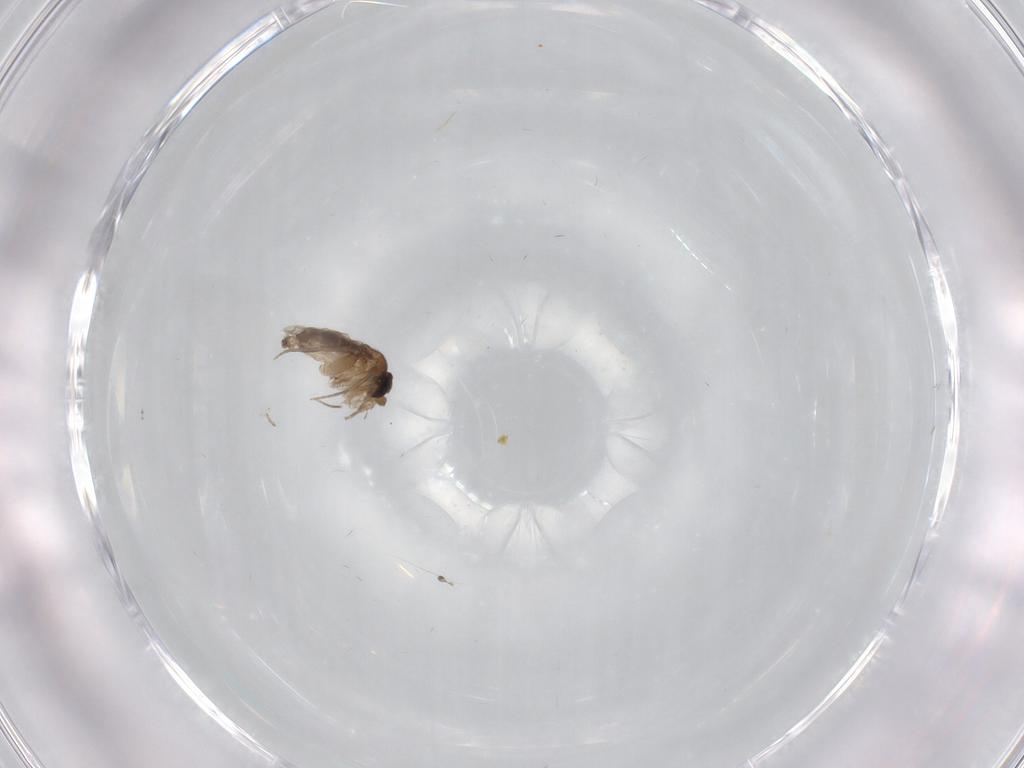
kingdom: Animalia
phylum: Arthropoda
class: Insecta
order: Diptera
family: Phoridae
